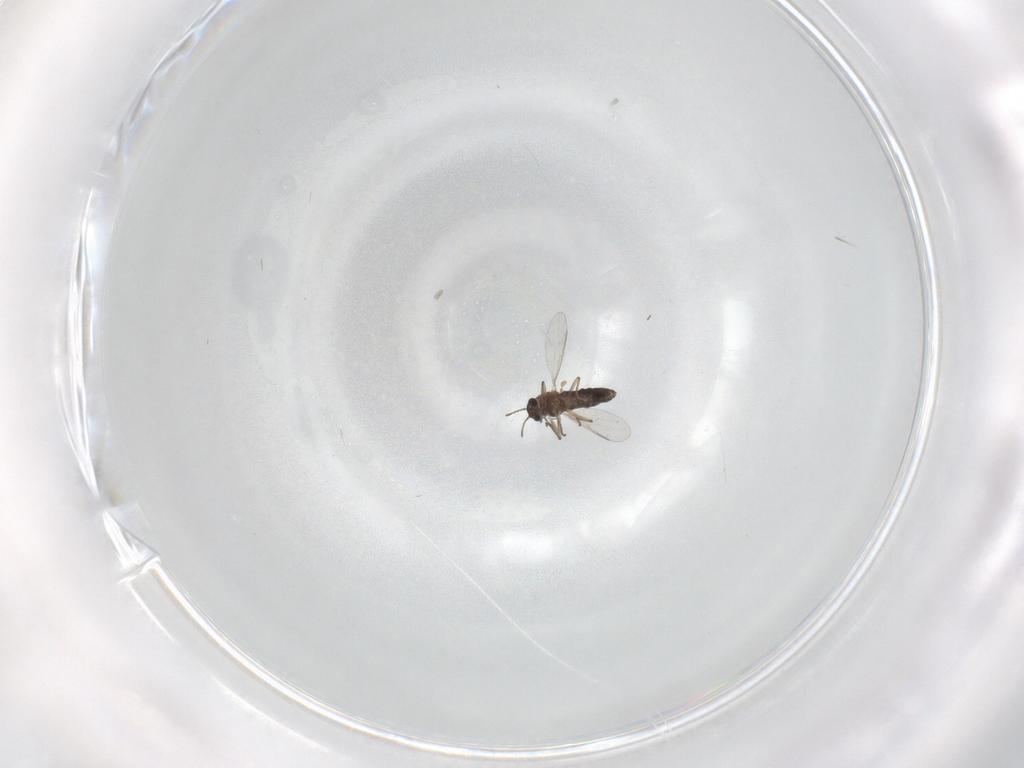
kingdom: Animalia
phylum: Arthropoda
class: Insecta
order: Diptera
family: Chironomidae
